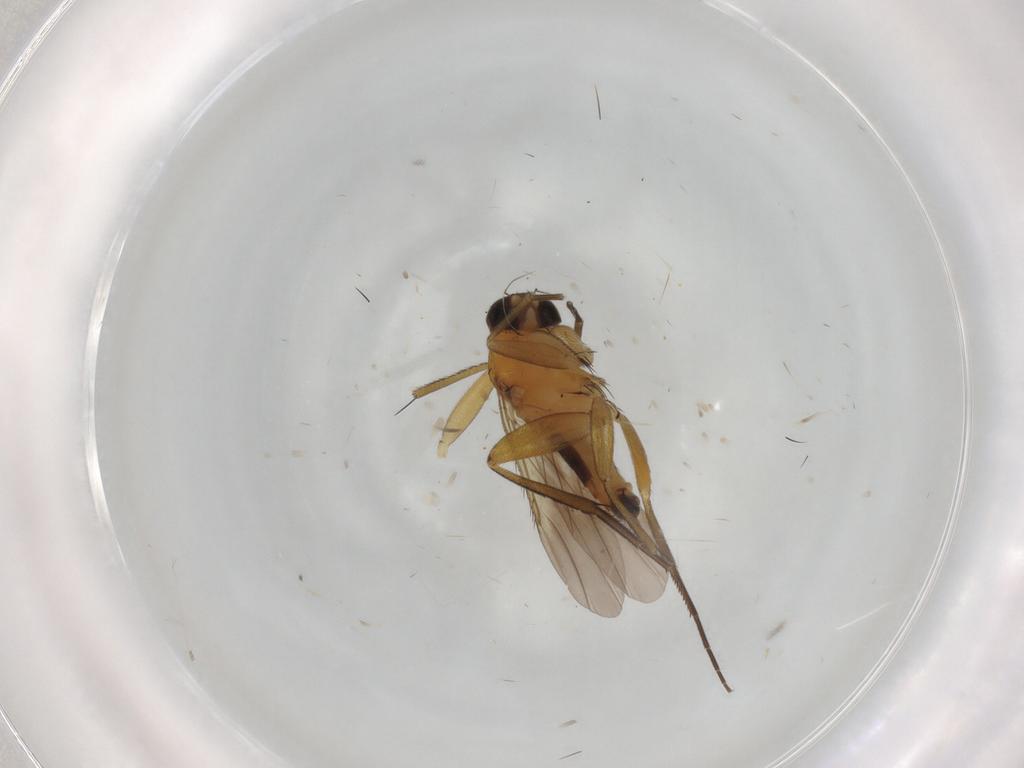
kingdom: Animalia
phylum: Arthropoda
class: Insecta
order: Diptera
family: Phoridae
